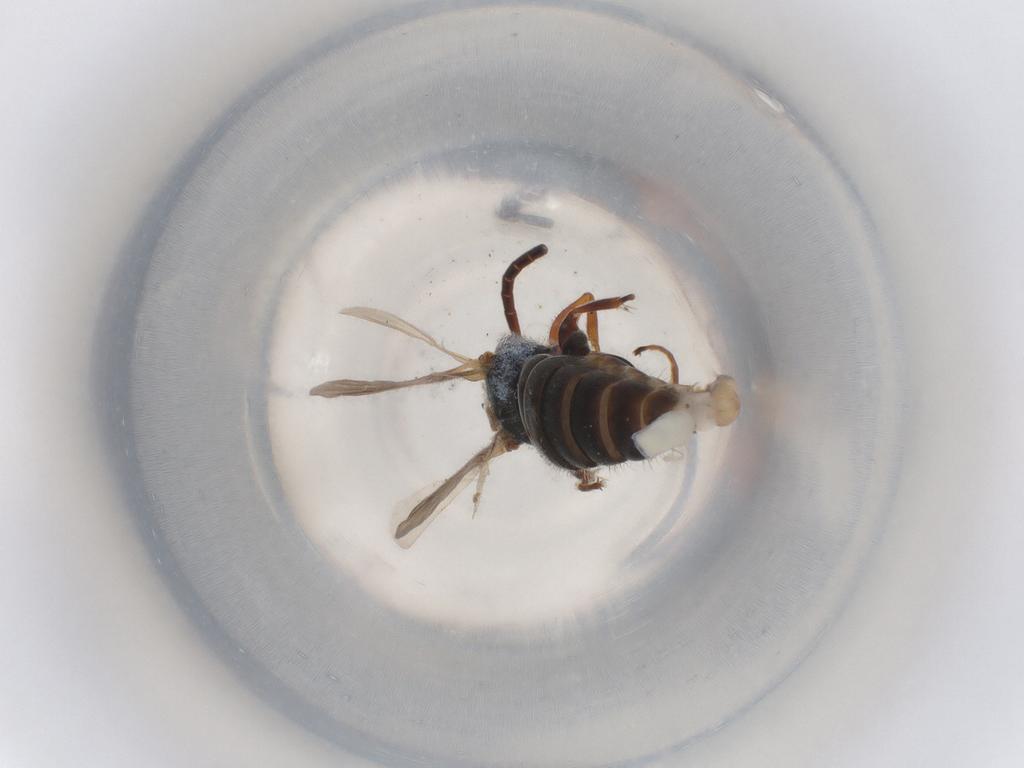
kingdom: Animalia
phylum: Arthropoda
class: Insecta
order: Hymenoptera
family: Bethylidae
